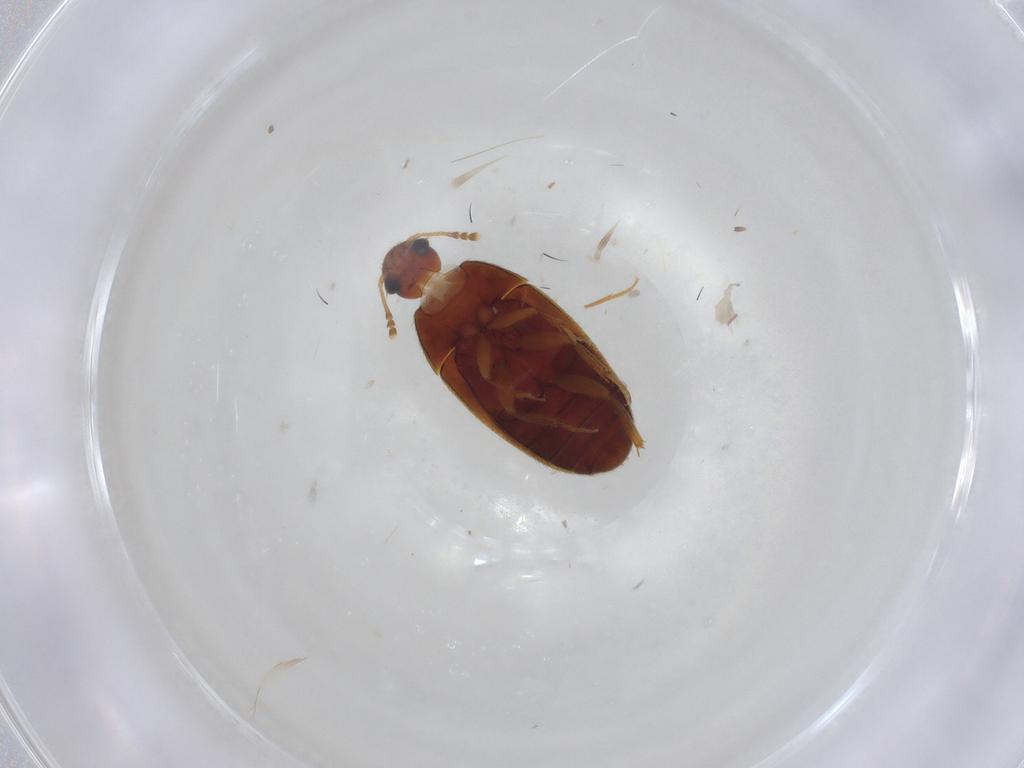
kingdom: Animalia
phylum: Arthropoda
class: Insecta
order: Coleoptera
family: Mycetophagidae
